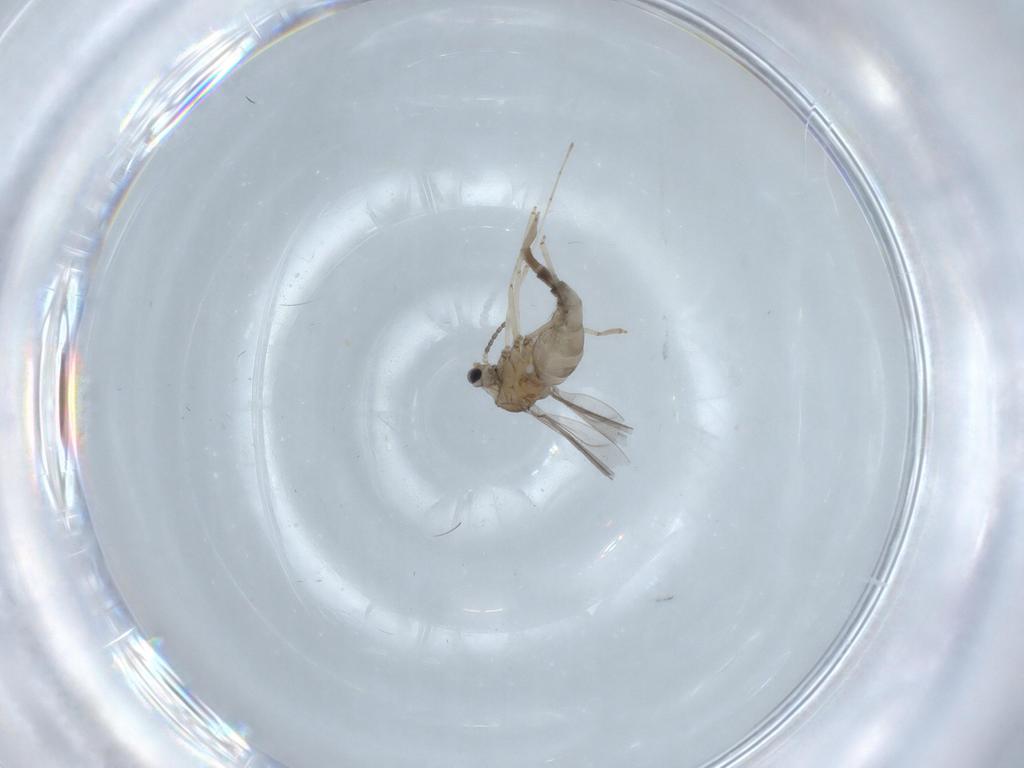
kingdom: Animalia
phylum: Arthropoda
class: Insecta
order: Diptera
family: Cecidomyiidae
